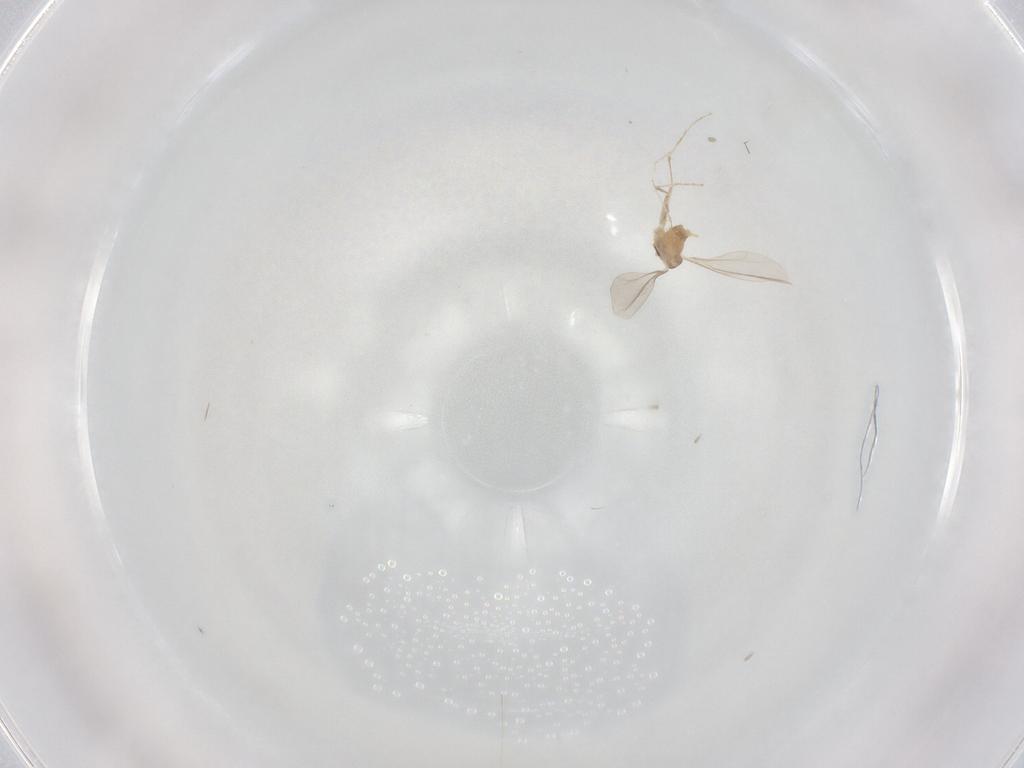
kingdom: Animalia
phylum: Arthropoda
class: Insecta
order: Diptera
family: Cecidomyiidae
